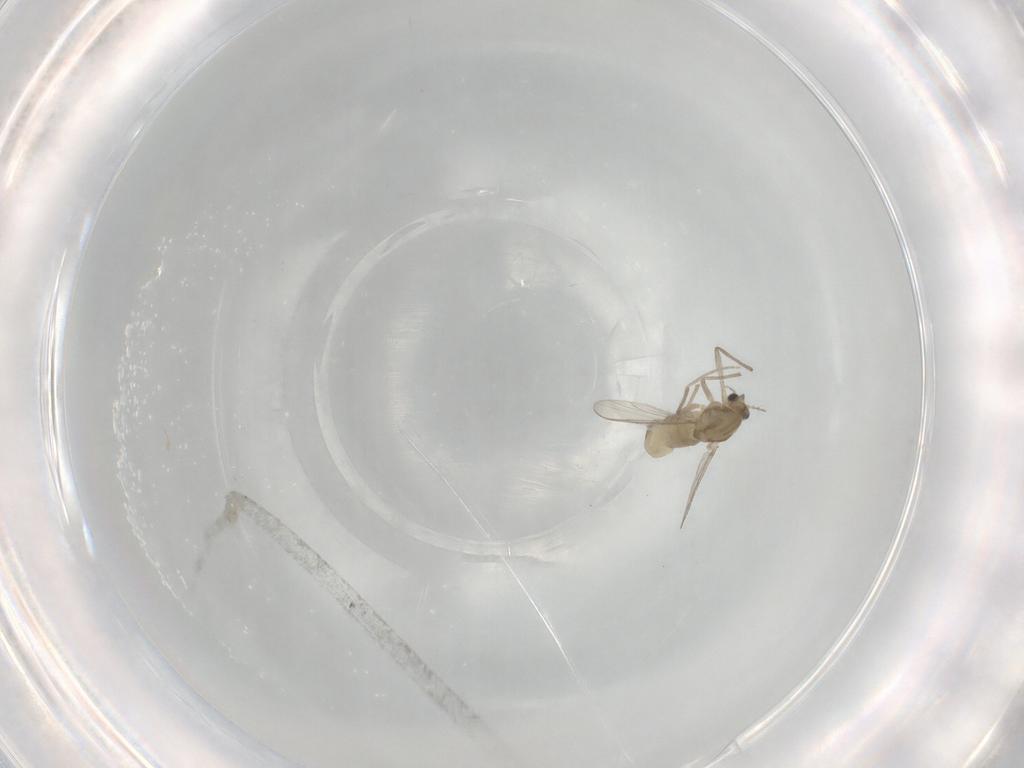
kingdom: Animalia
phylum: Arthropoda
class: Insecta
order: Diptera
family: Chironomidae
